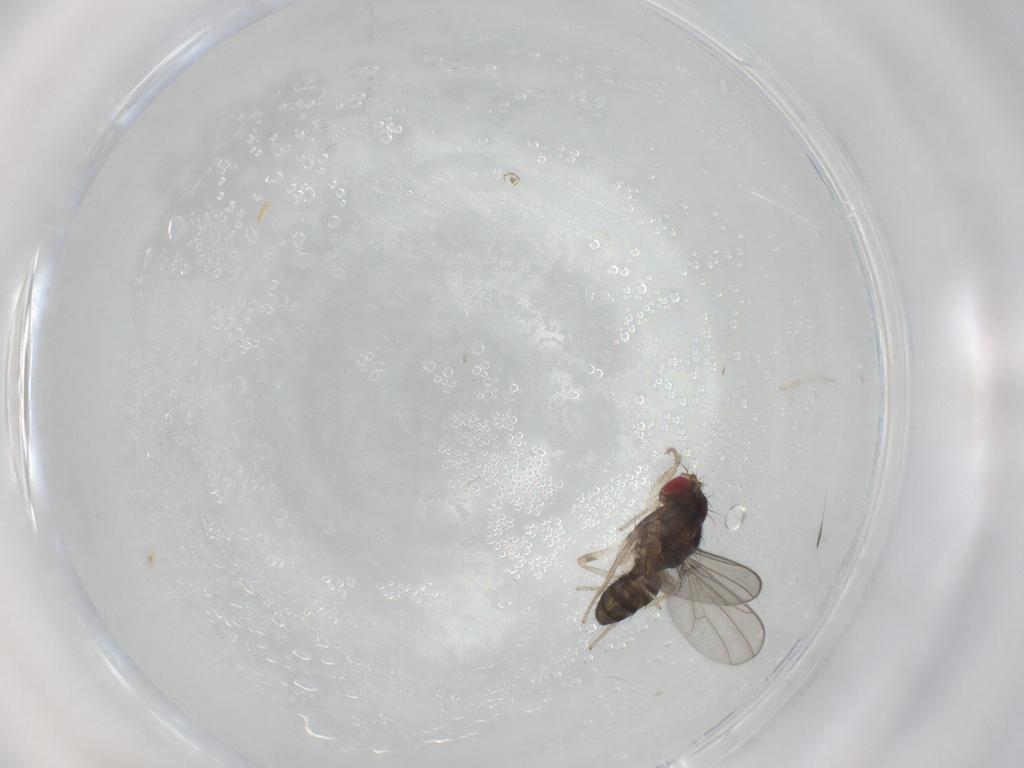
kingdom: Animalia
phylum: Arthropoda
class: Insecta
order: Diptera
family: Drosophilidae
